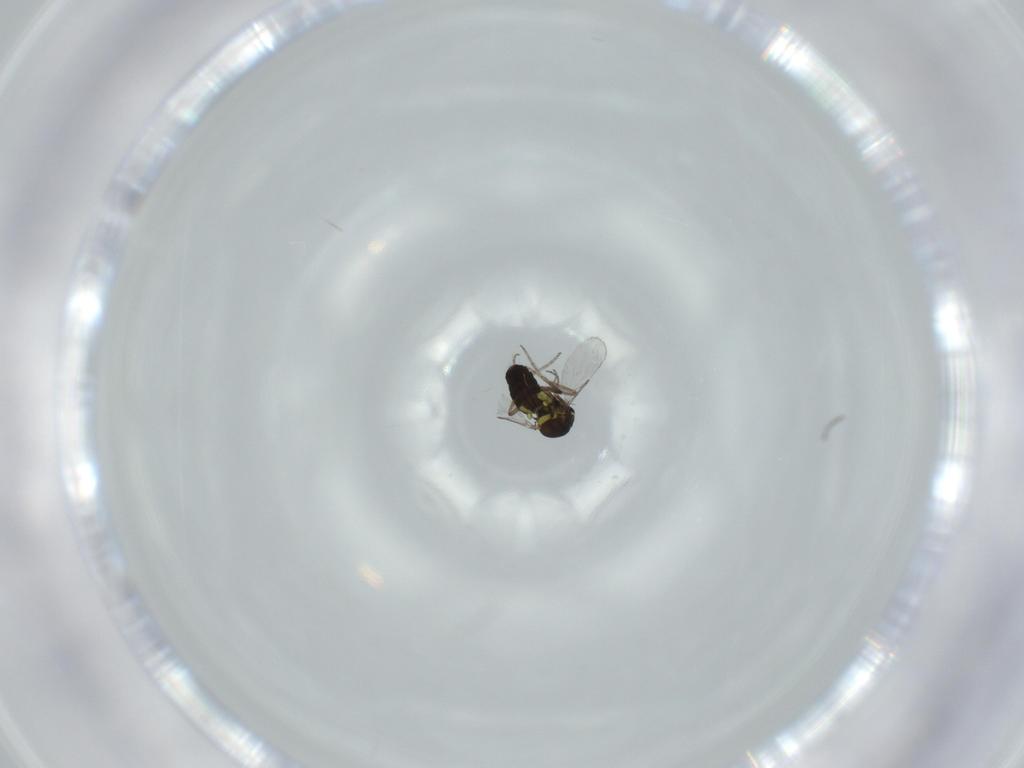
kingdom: Animalia
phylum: Arthropoda
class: Insecta
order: Diptera
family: Ceratopogonidae
